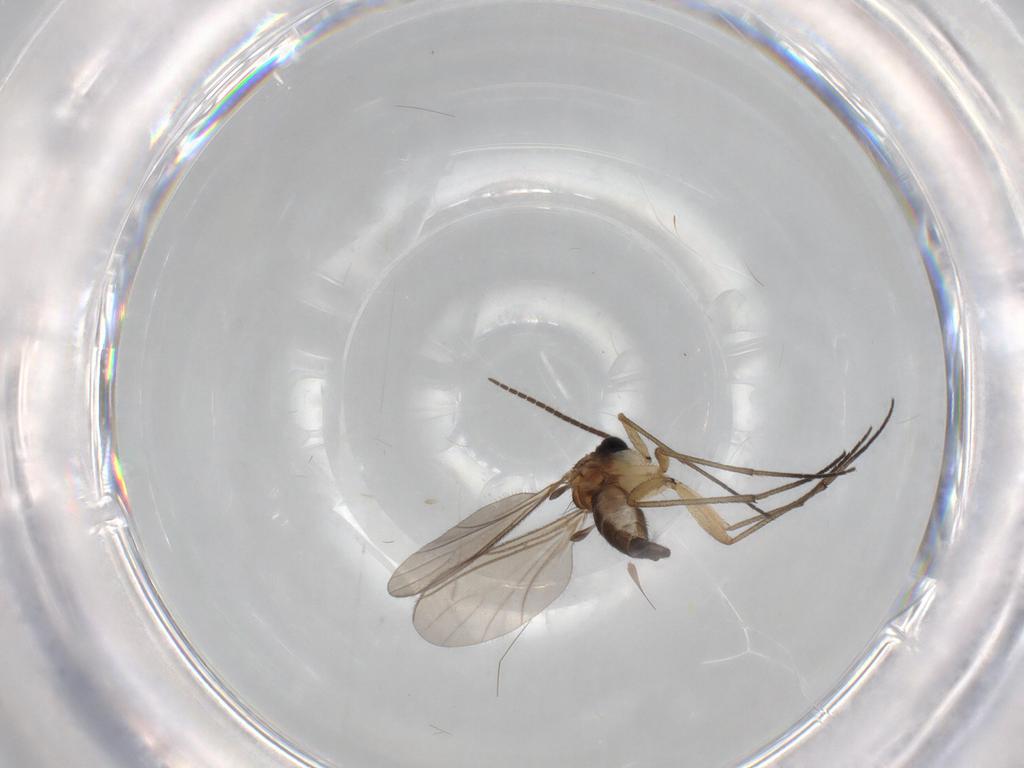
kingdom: Animalia
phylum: Arthropoda
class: Insecta
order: Diptera
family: Chironomidae
